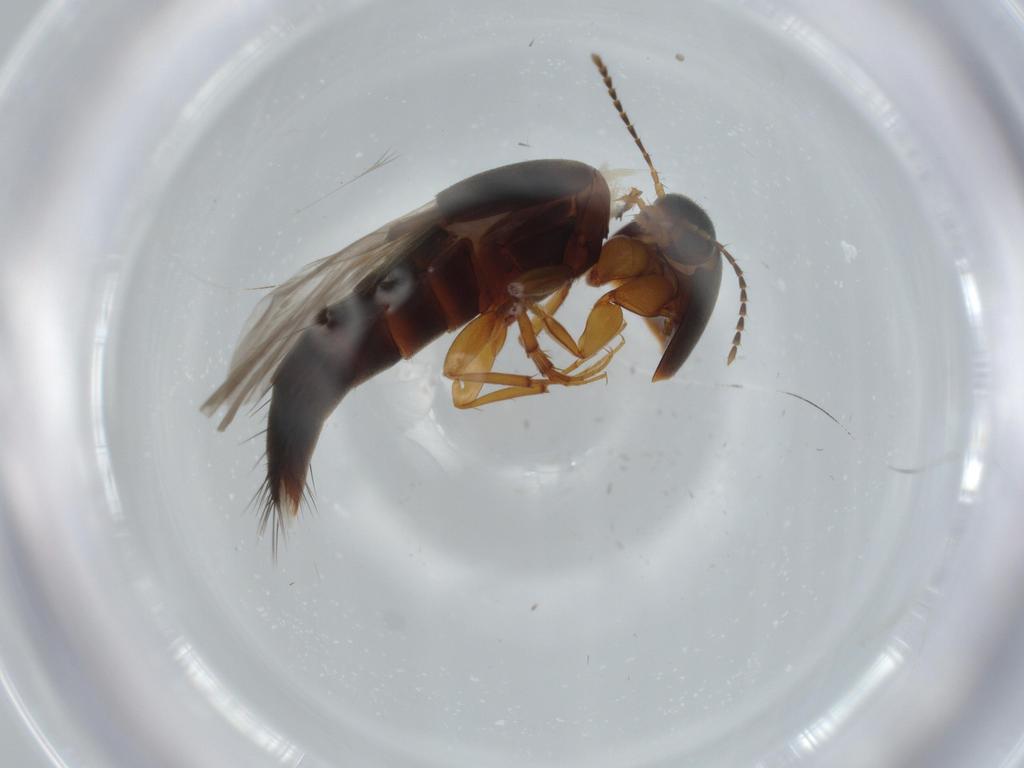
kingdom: Animalia
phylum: Arthropoda
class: Insecta
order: Coleoptera
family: Staphylinidae
